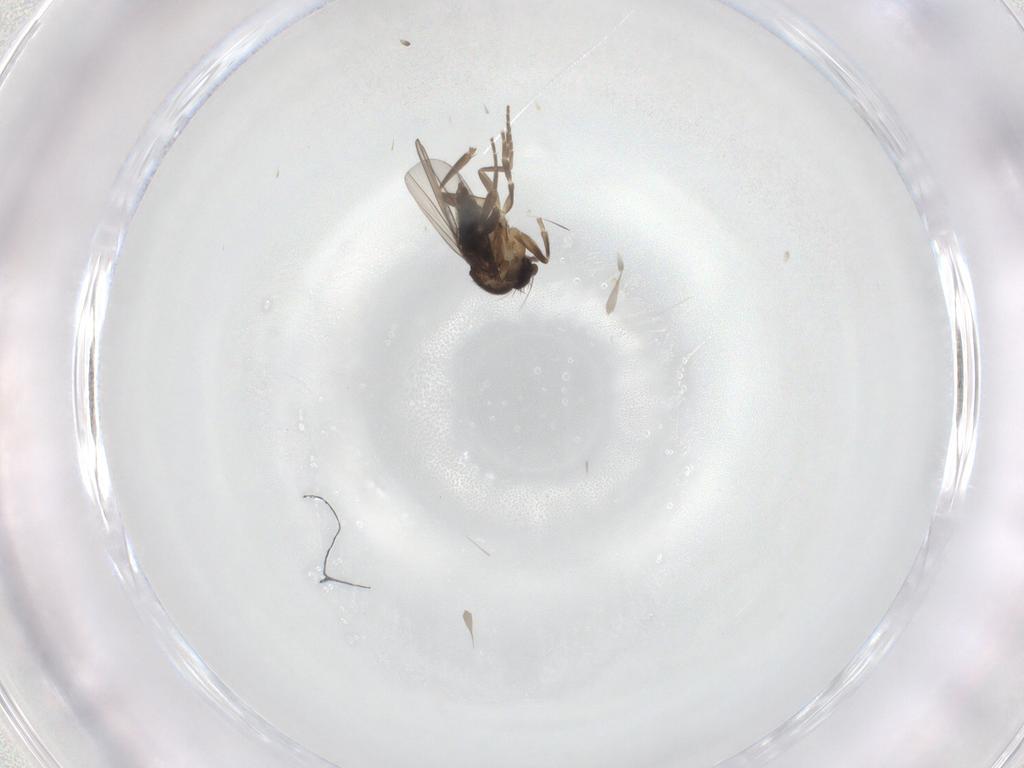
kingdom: Animalia
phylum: Arthropoda
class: Insecta
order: Diptera
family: Phoridae
